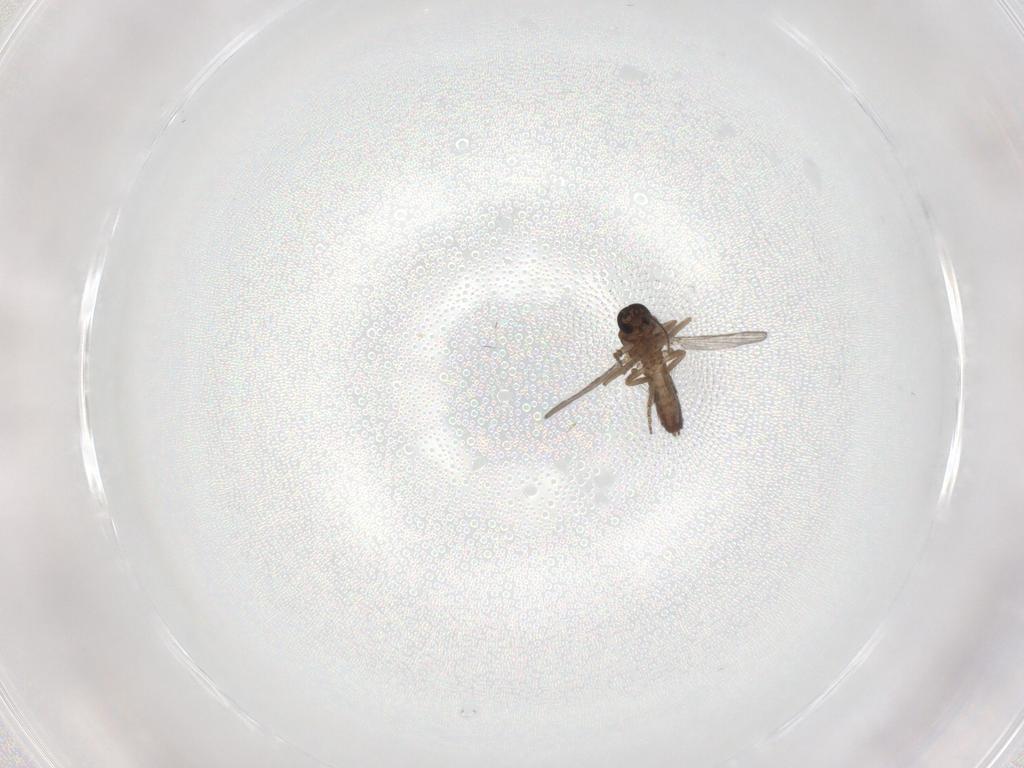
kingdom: Animalia
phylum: Arthropoda
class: Insecta
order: Diptera
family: Ceratopogonidae
